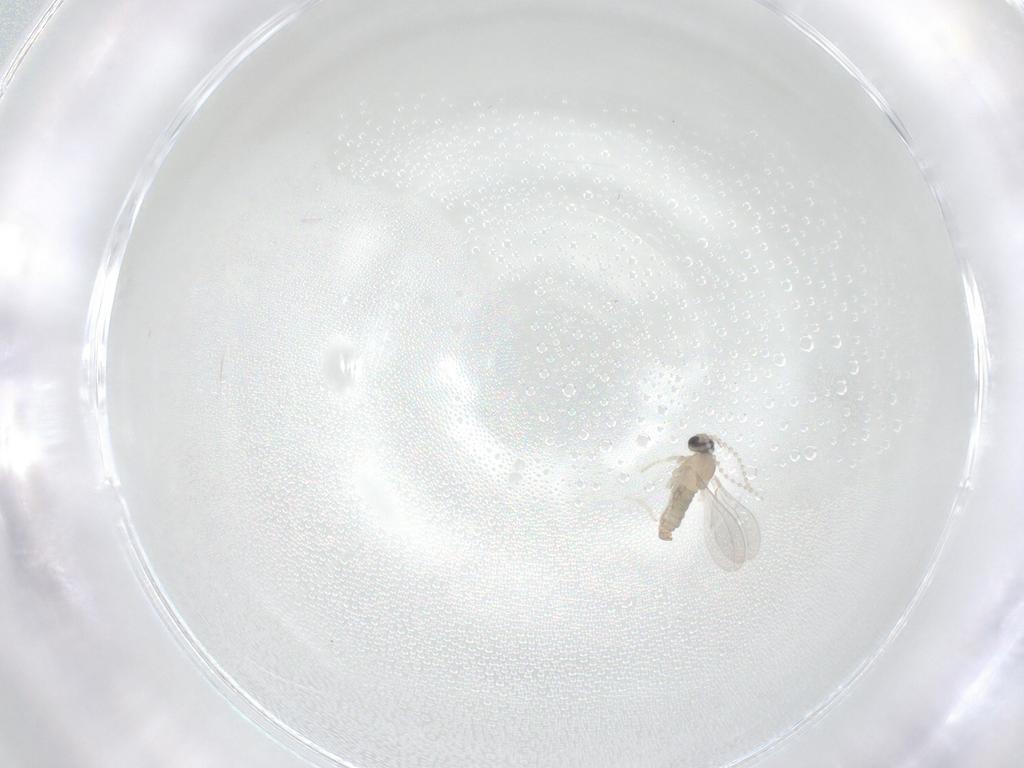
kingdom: Animalia
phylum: Arthropoda
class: Insecta
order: Diptera
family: Cecidomyiidae
